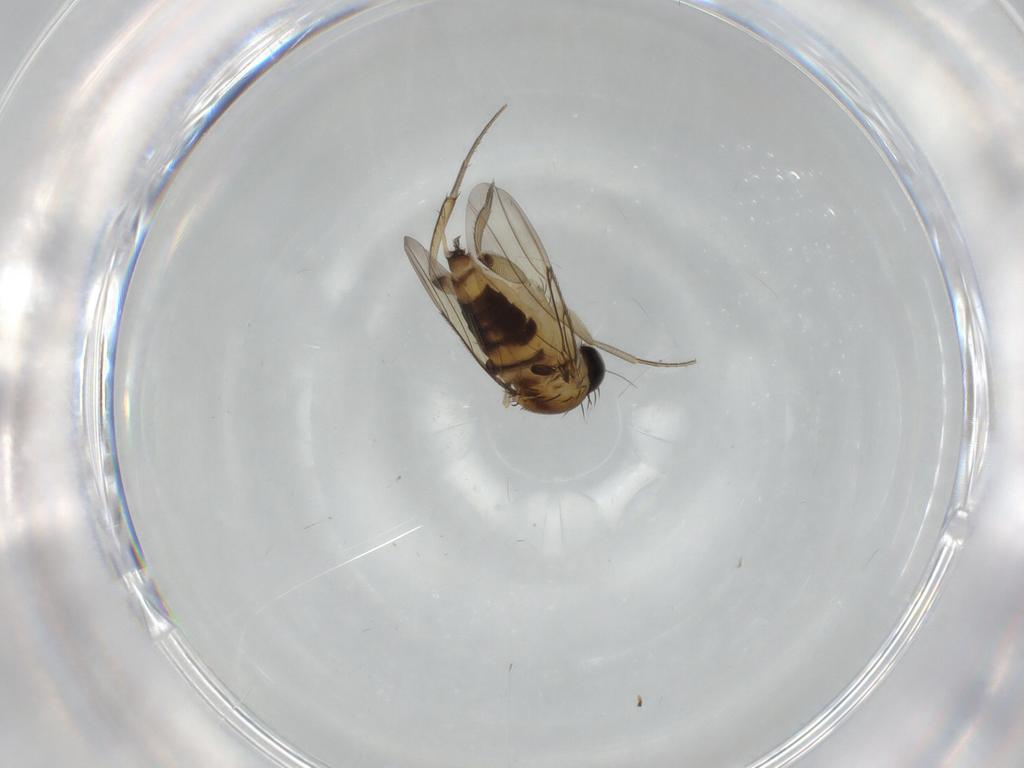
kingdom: Animalia
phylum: Arthropoda
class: Insecta
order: Diptera
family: Phoridae
